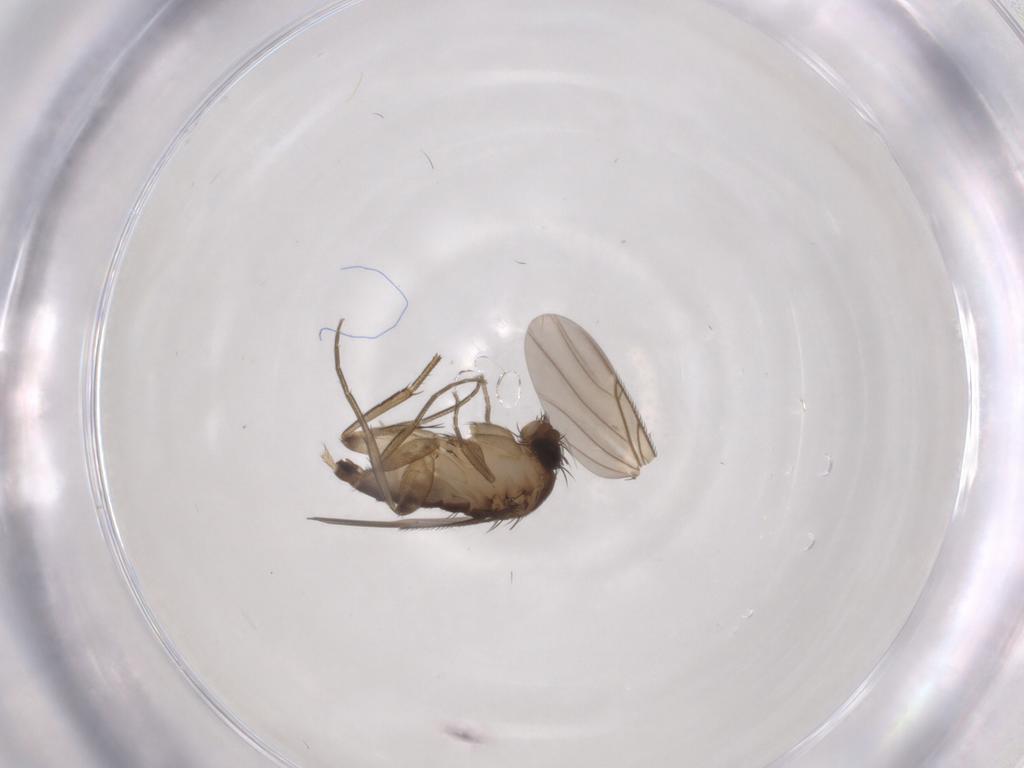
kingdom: Animalia
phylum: Arthropoda
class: Insecta
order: Diptera
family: Phoridae
